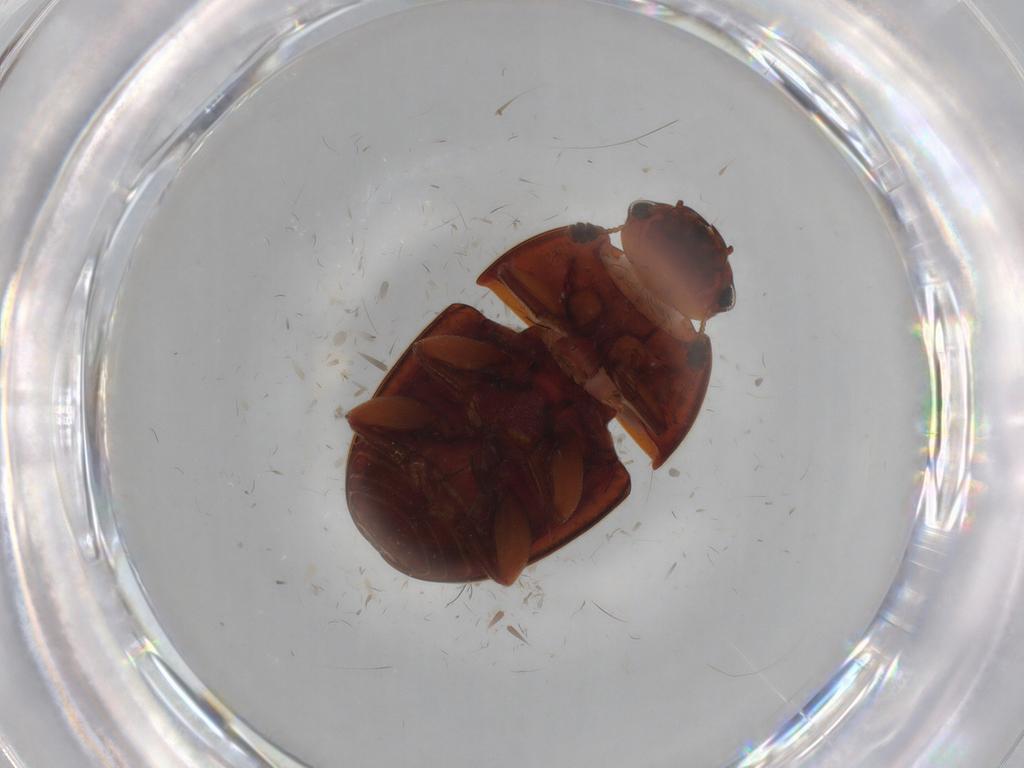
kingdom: Animalia
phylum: Arthropoda
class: Insecta
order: Coleoptera
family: Nitidulidae
